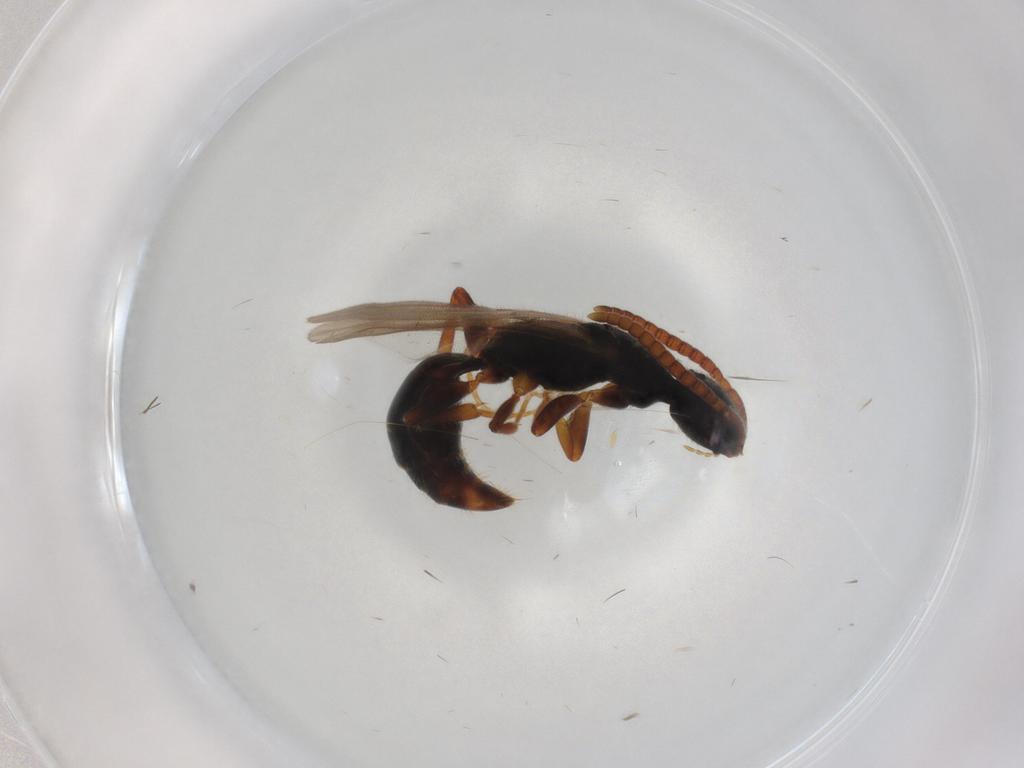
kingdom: Animalia
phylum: Arthropoda
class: Insecta
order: Hymenoptera
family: Bethylidae
